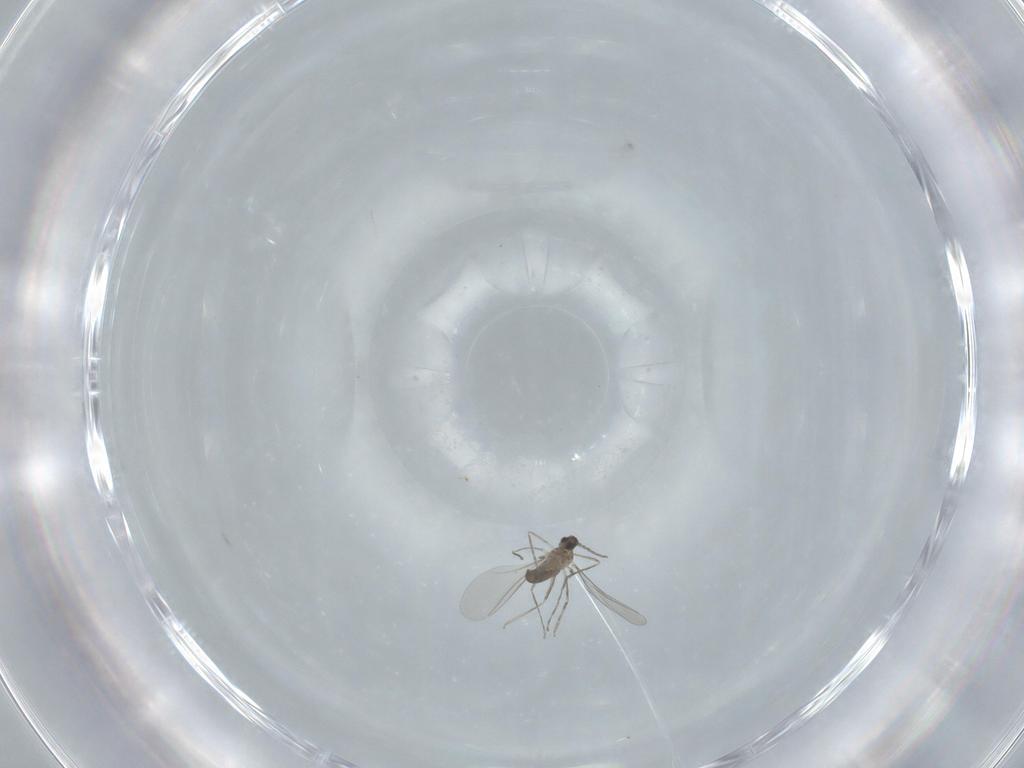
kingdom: Animalia
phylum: Arthropoda
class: Insecta
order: Diptera
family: Cecidomyiidae
